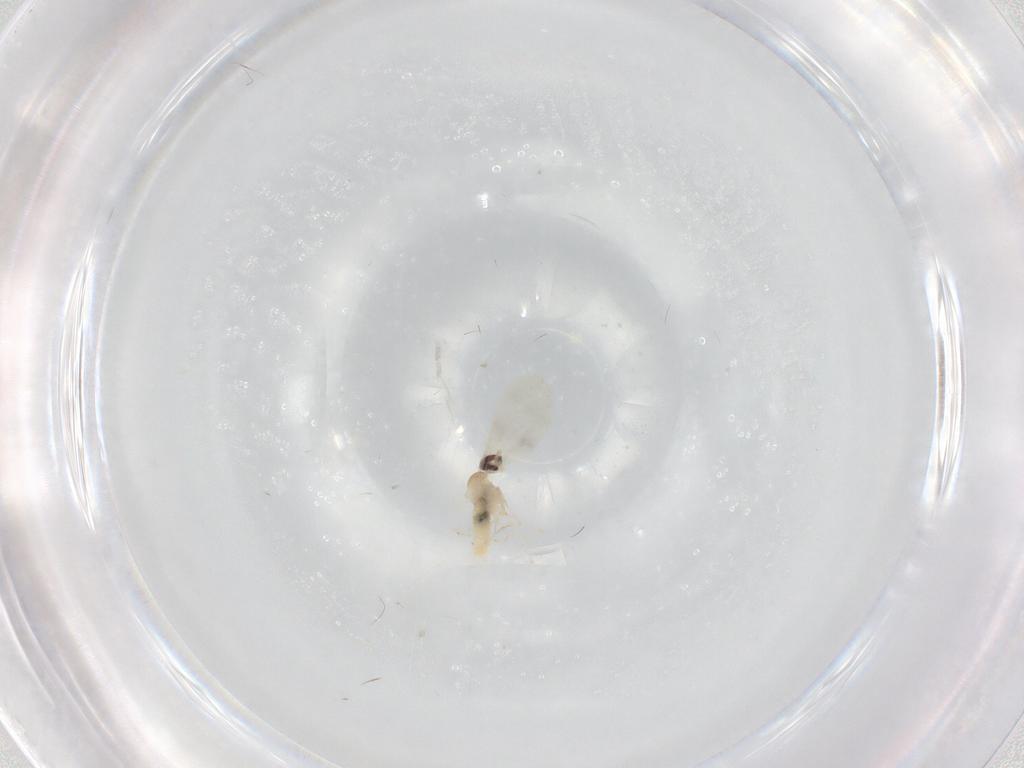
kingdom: Animalia
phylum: Arthropoda
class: Insecta
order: Diptera
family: Cecidomyiidae
